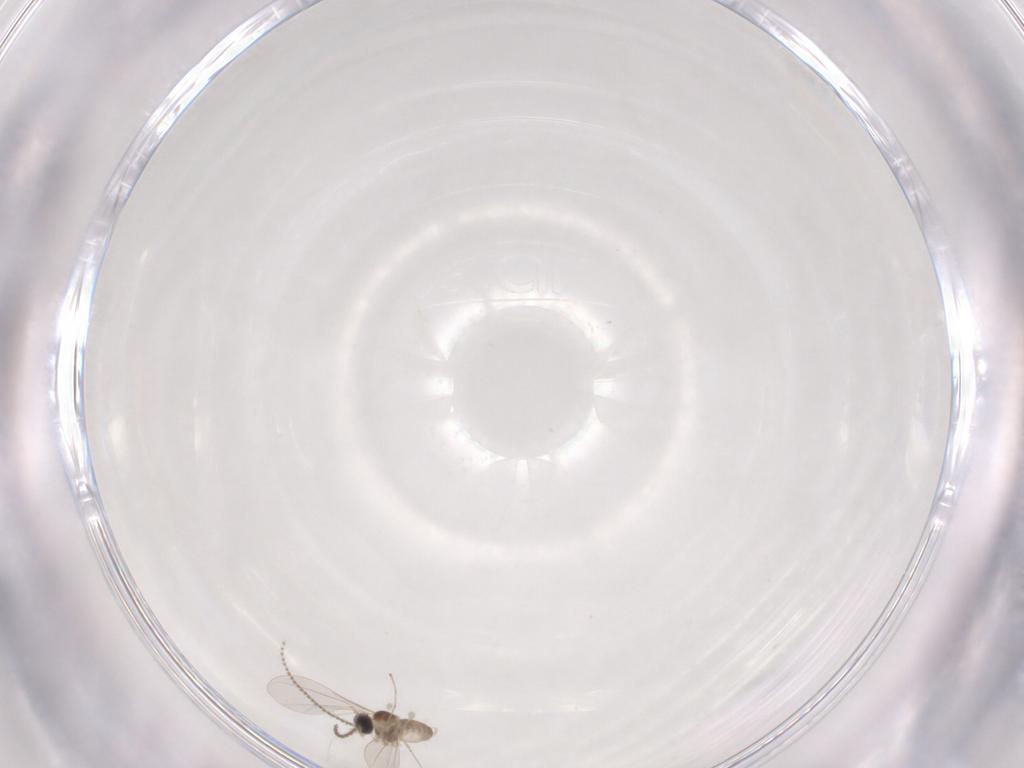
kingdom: Animalia
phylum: Arthropoda
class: Insecta
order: Diptera
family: Cecidomyiidae
